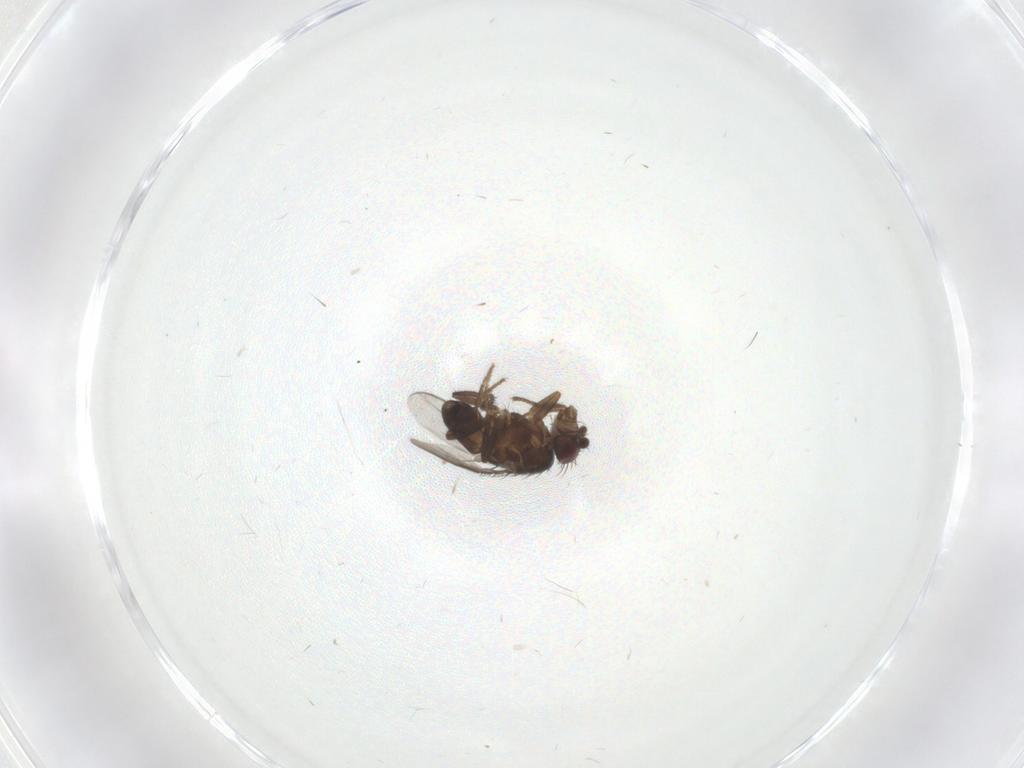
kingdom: Animalia
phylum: Arthropoda
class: Insecta
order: Diptera
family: Sphaeroceridae
